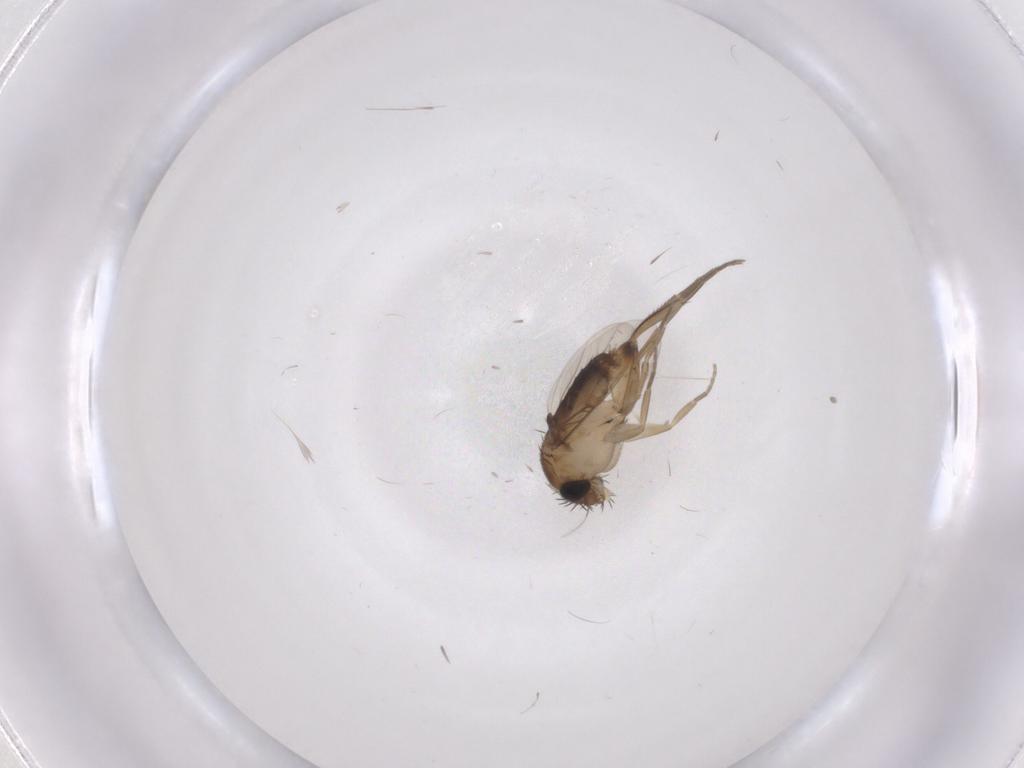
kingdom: Animalia
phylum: Arthropoda
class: Insecta
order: Diptera
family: Phoridae
